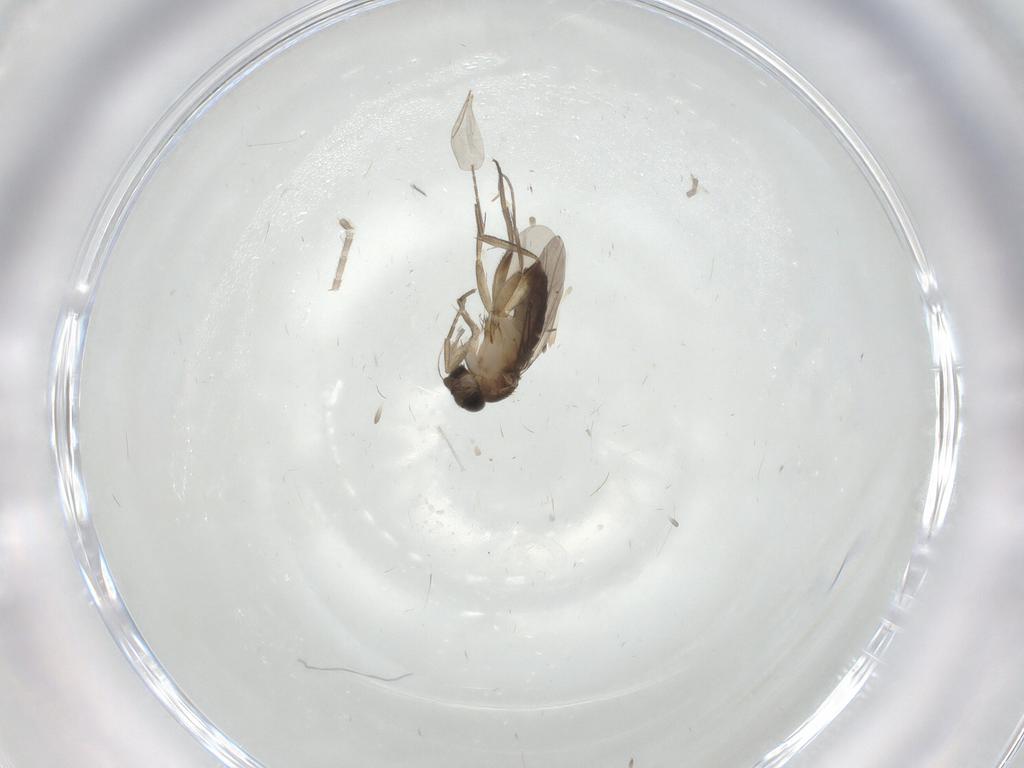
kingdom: Animalia
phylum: Arthropoda
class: Insecta
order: Diptera
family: Phoridae
